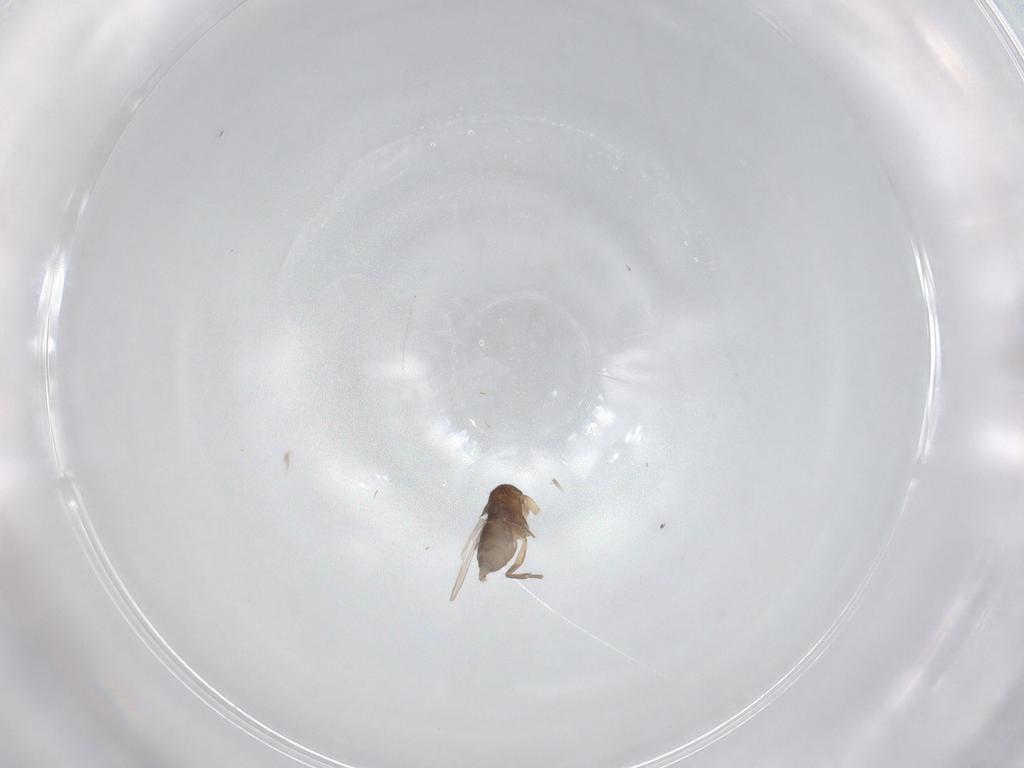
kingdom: Animalia
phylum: Arthropoda
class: Insecta
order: Diptera
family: Phoridae
